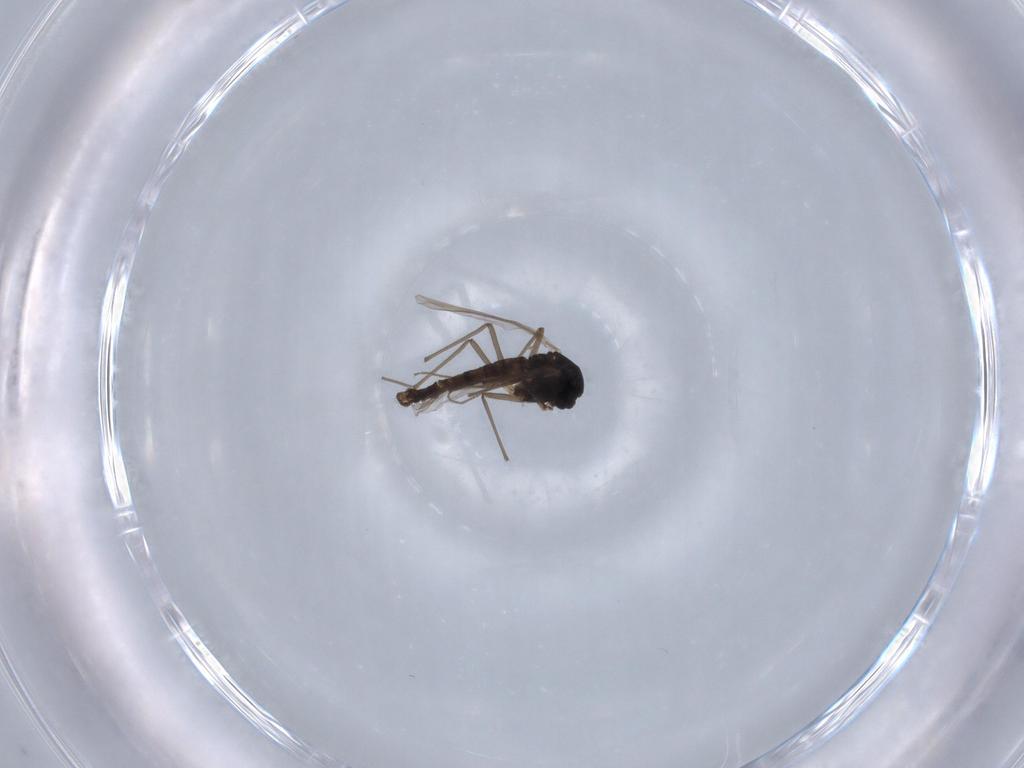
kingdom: Animalia
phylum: Arthropoda
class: Insecta
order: Diptera
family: Chironomidae
